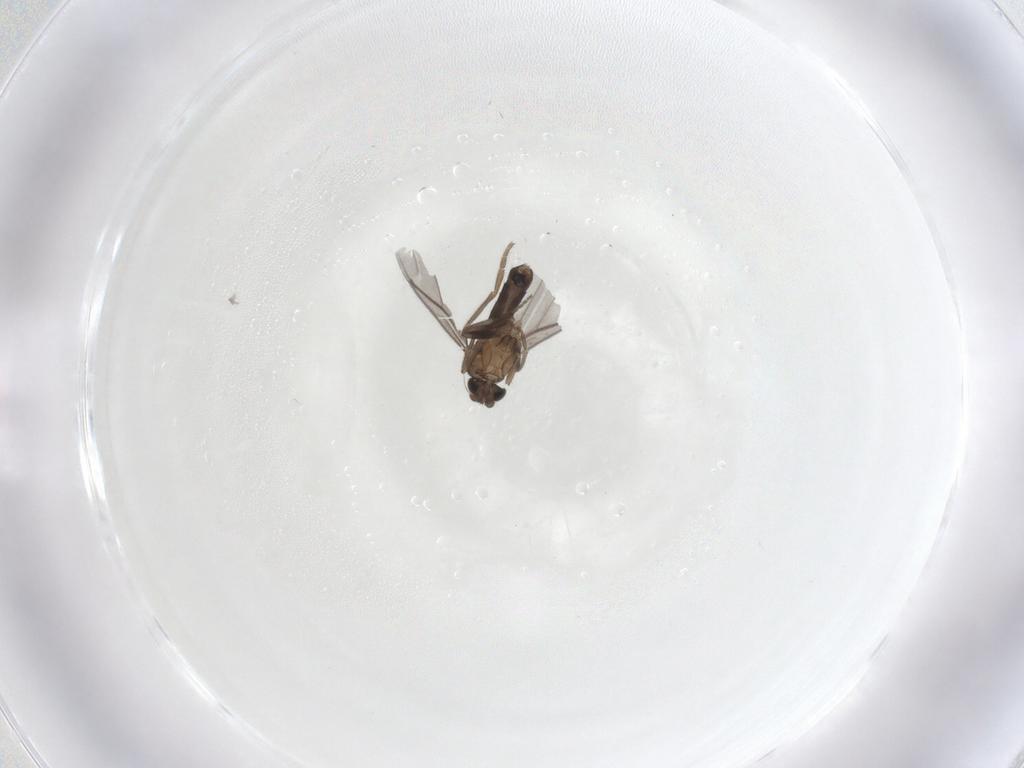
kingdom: Animalia
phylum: Arthropoda
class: Insecta
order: Diptera
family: Phoridae
